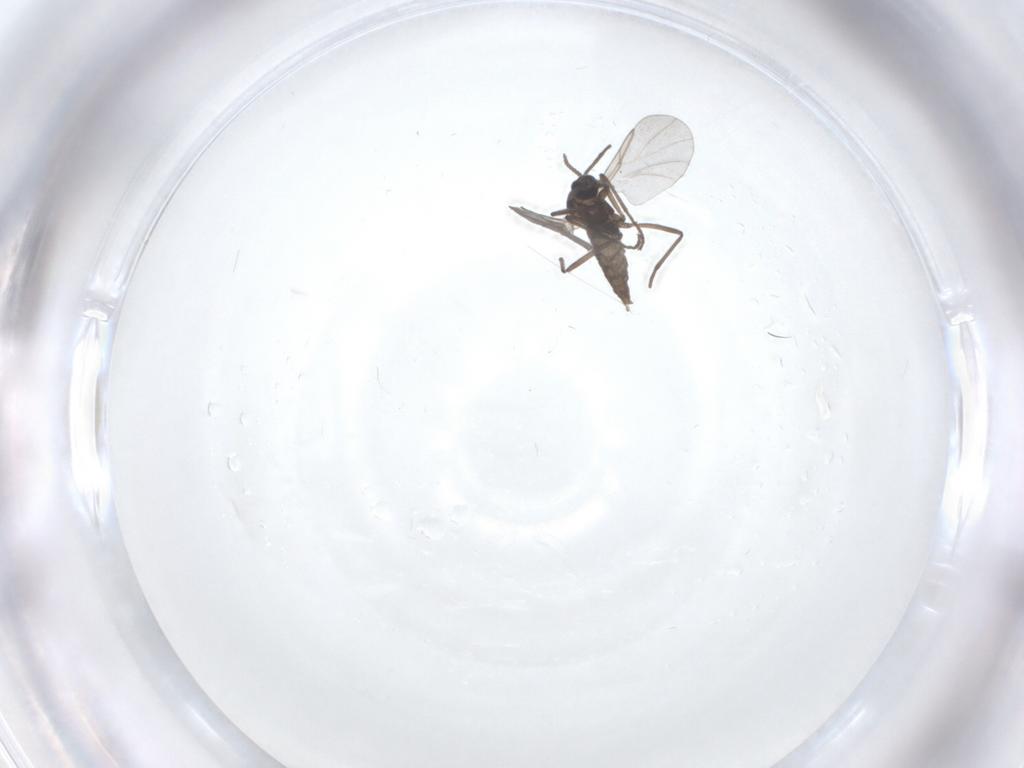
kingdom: Animalia
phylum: Arthropoda
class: Insecta
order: Diptera
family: Cecidomyiidae
